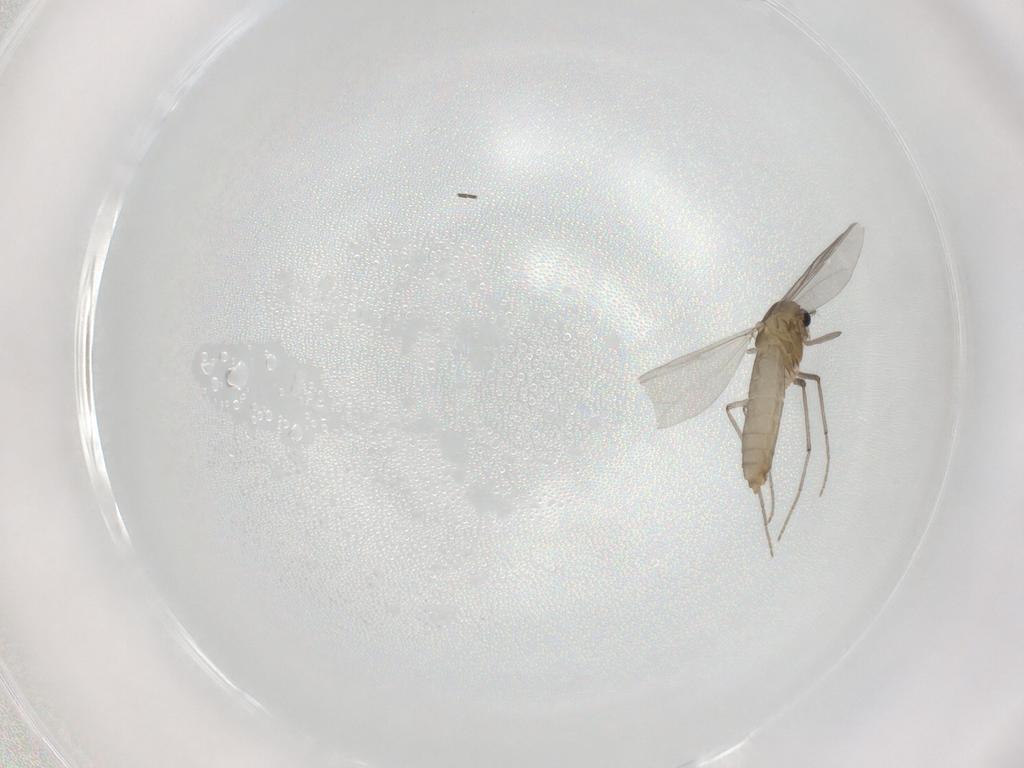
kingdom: Animalia
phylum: Arthropoda
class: Insecta
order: Diptera
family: Chironomidae
